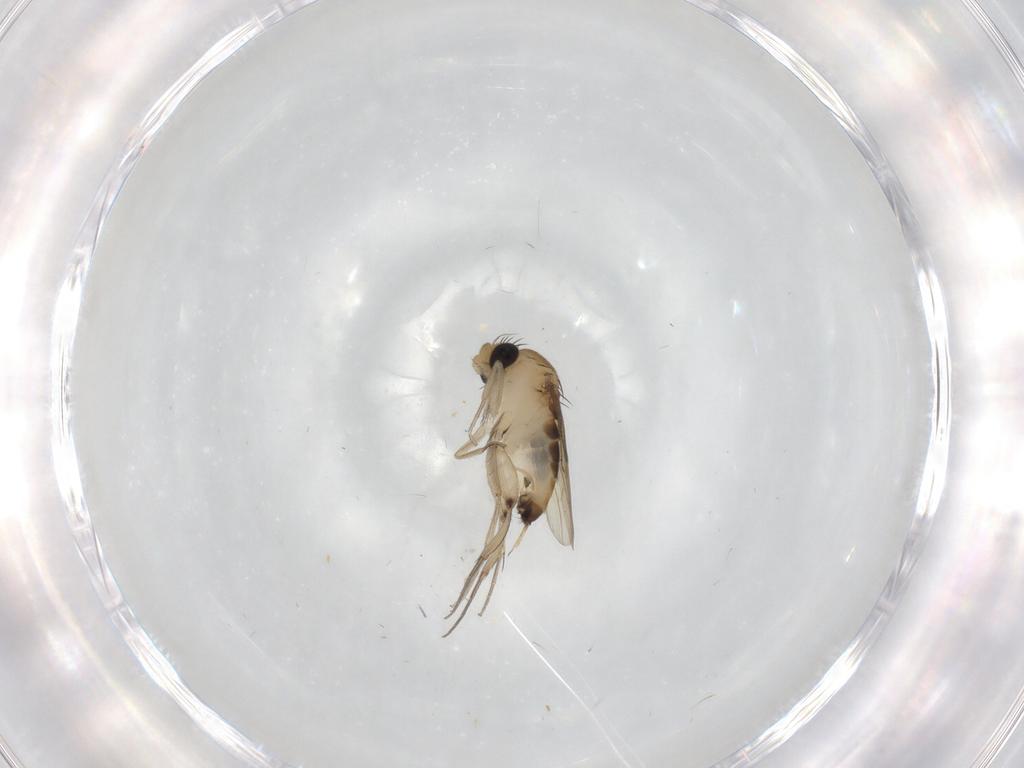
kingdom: Animalia
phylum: Arthropoda
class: Insecta
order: Diptera
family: Phoridae
